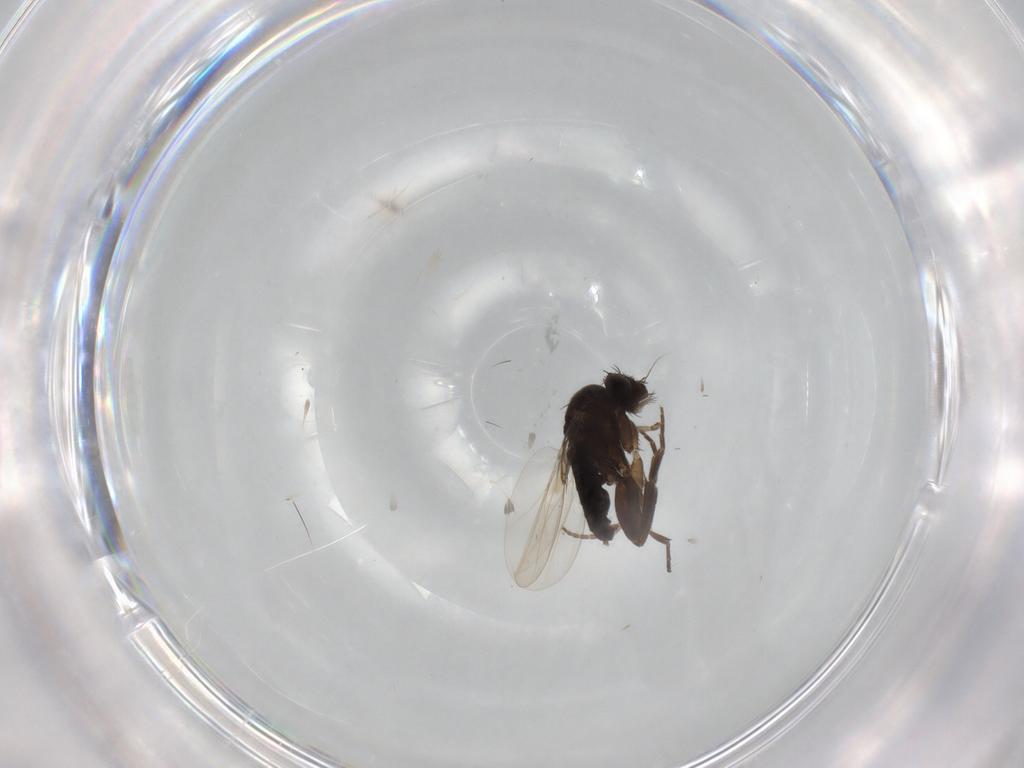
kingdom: Animalia
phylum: Arthropoda
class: Insecta
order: Diptera
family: Phoridae
